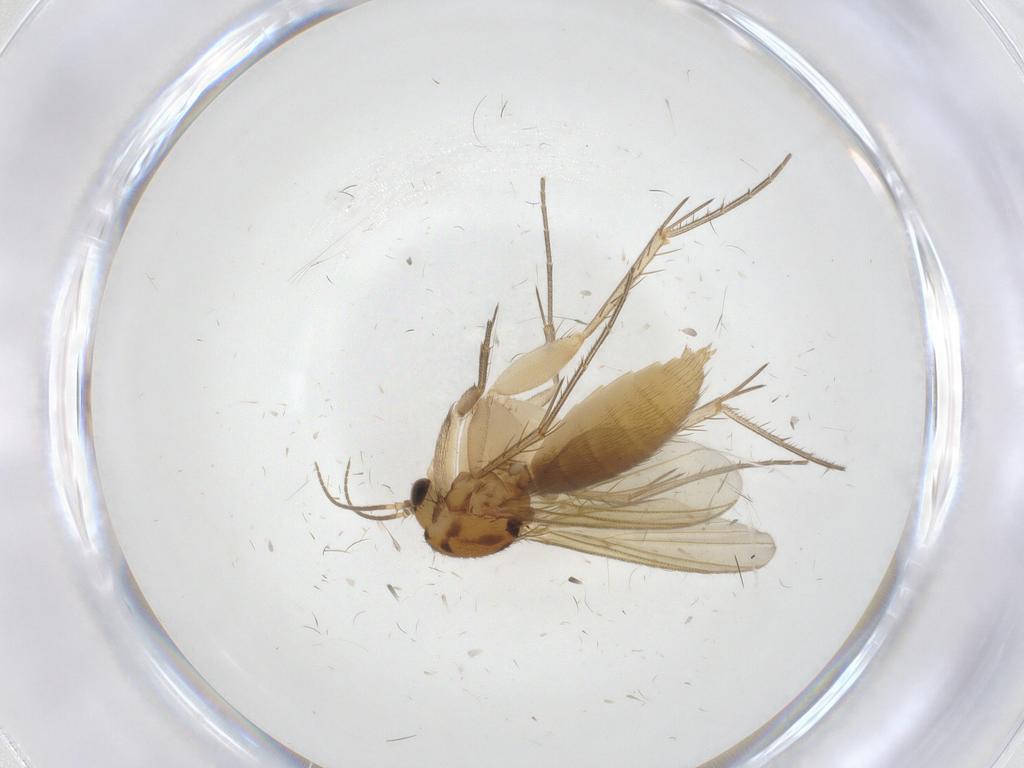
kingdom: Animalia
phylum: Arthropoda
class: Insecta
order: Diptera
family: Mycetophilidae
